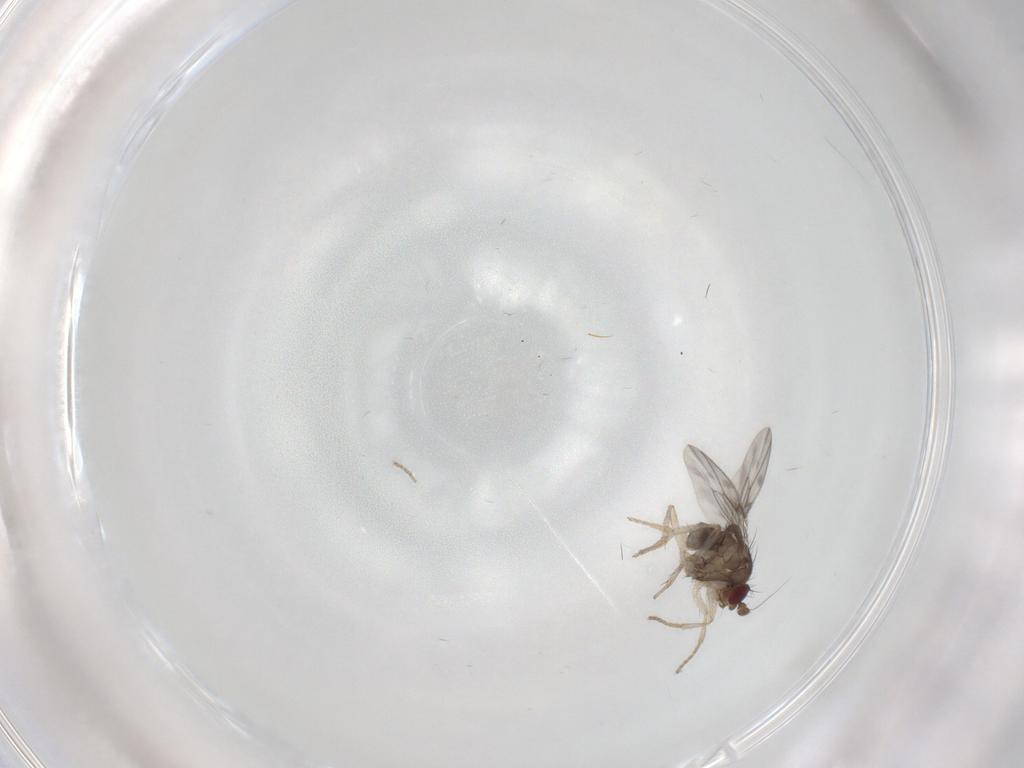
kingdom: Animalia
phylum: Arthropoda
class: Insecta
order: Diptera
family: Sphaeroceridae
